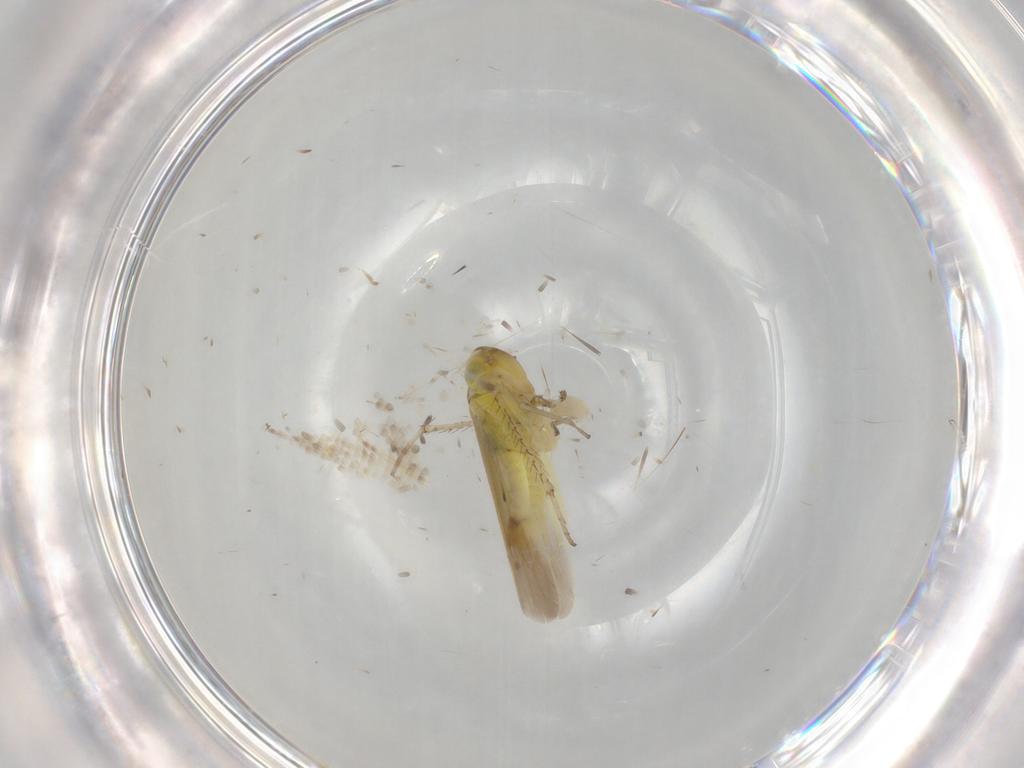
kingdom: Animalia
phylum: Arthropoda
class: Insecta
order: Hemiptera
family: Cicadellidae
